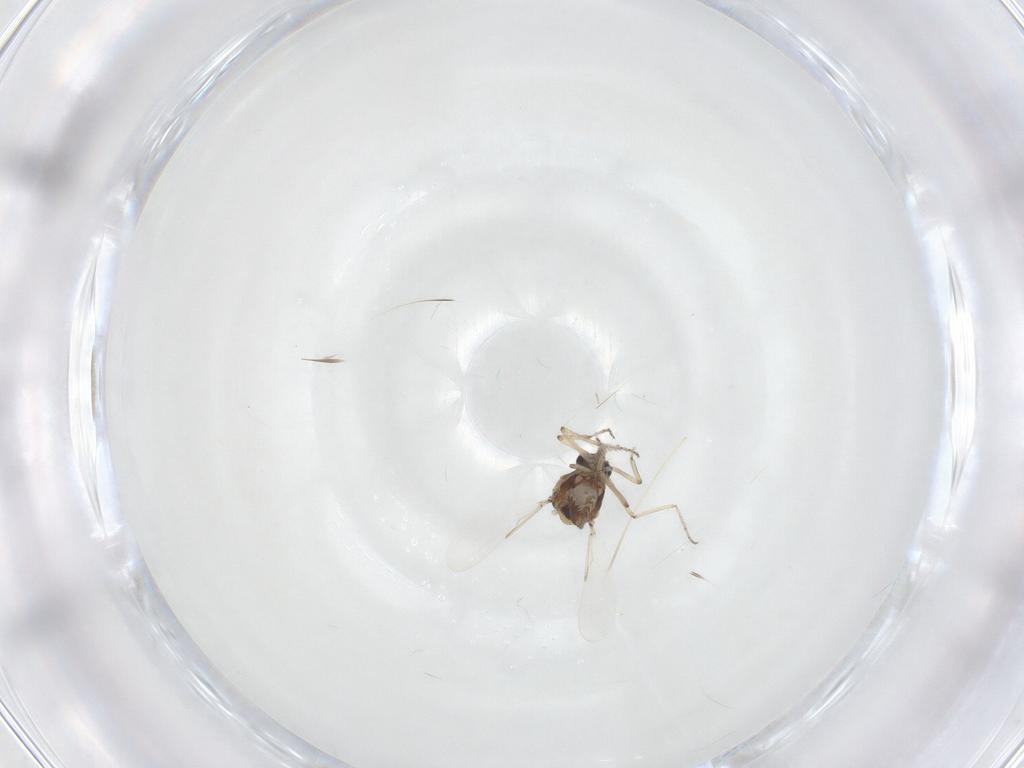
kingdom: Animalia
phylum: Arthropoda
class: Insecta
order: Diptera
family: Ceratopogonidae
